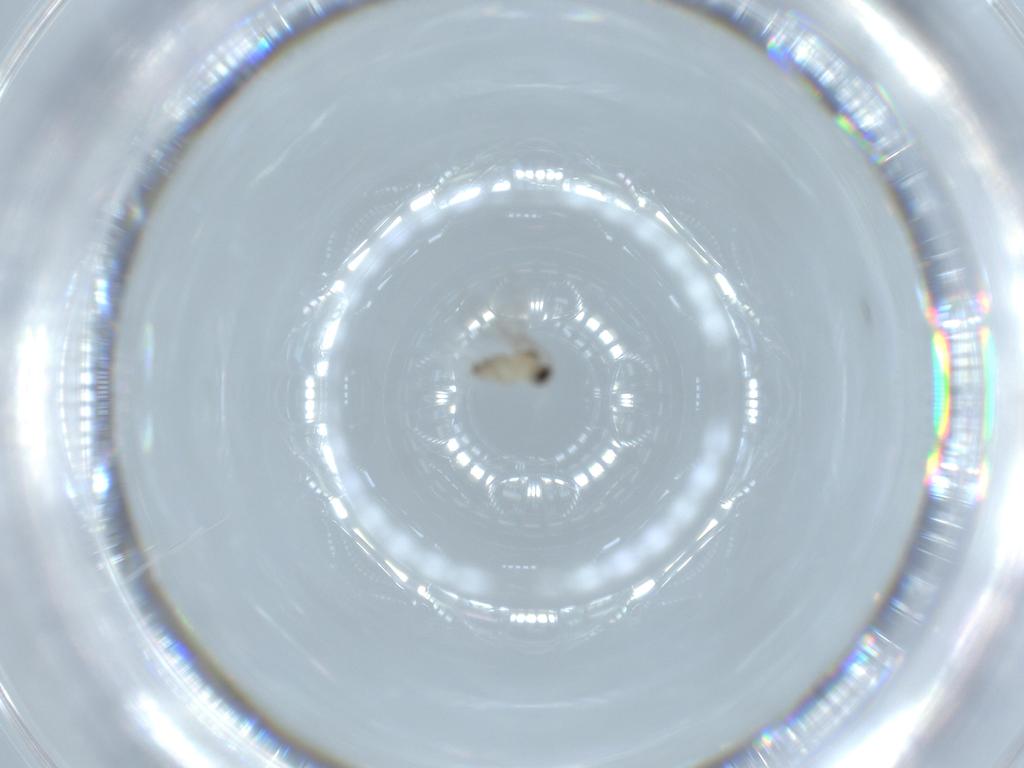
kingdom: Animalia
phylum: Arthropoda
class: Insecta
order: Diptera
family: Cecidomyiidae
